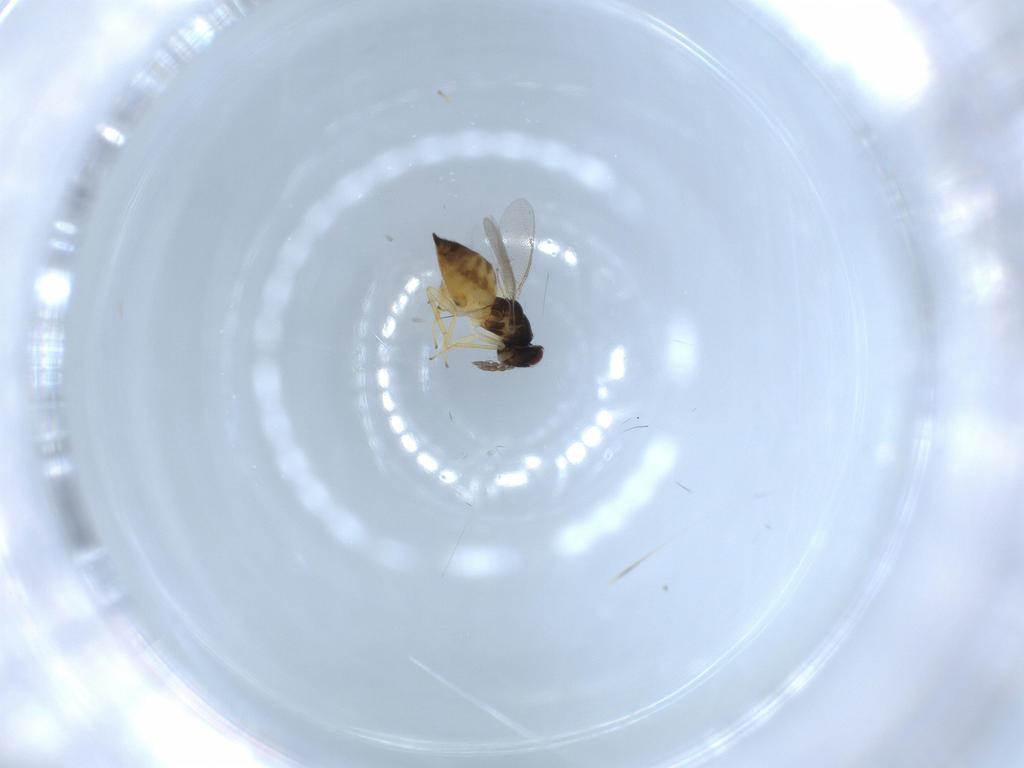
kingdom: Animalia
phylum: Arthropoda
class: Insecta
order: Hymenoptera
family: Eulophidae
